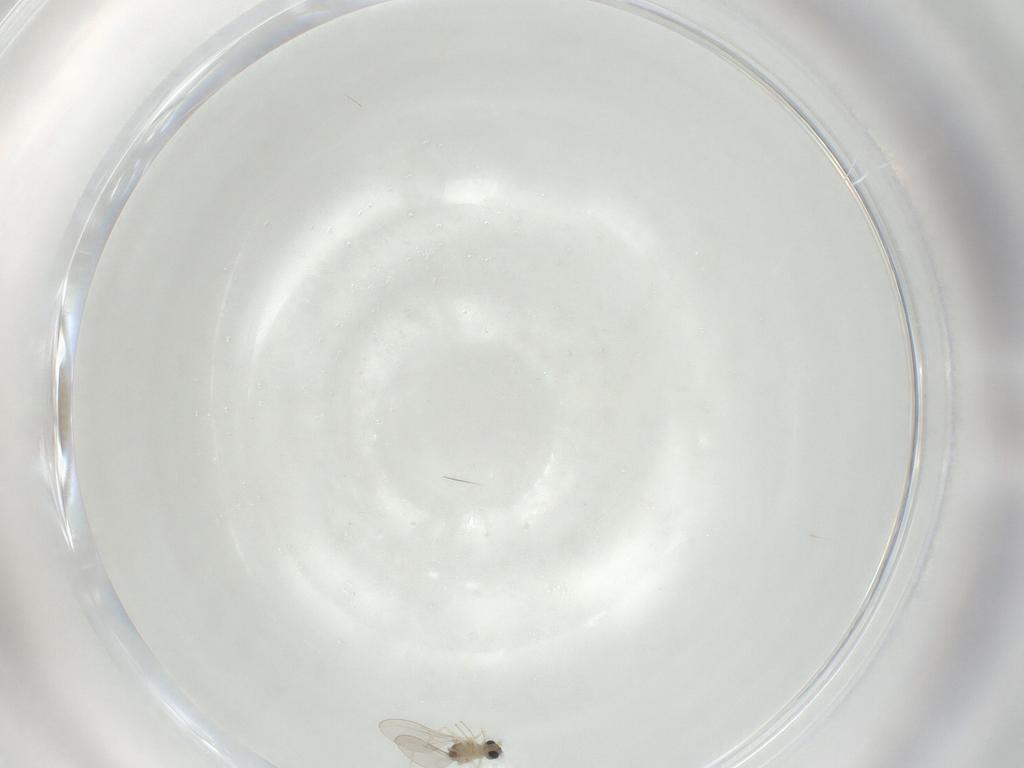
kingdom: Animalia
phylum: Arthropoda
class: Insecta
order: Diptera
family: Cecidomyiidae
